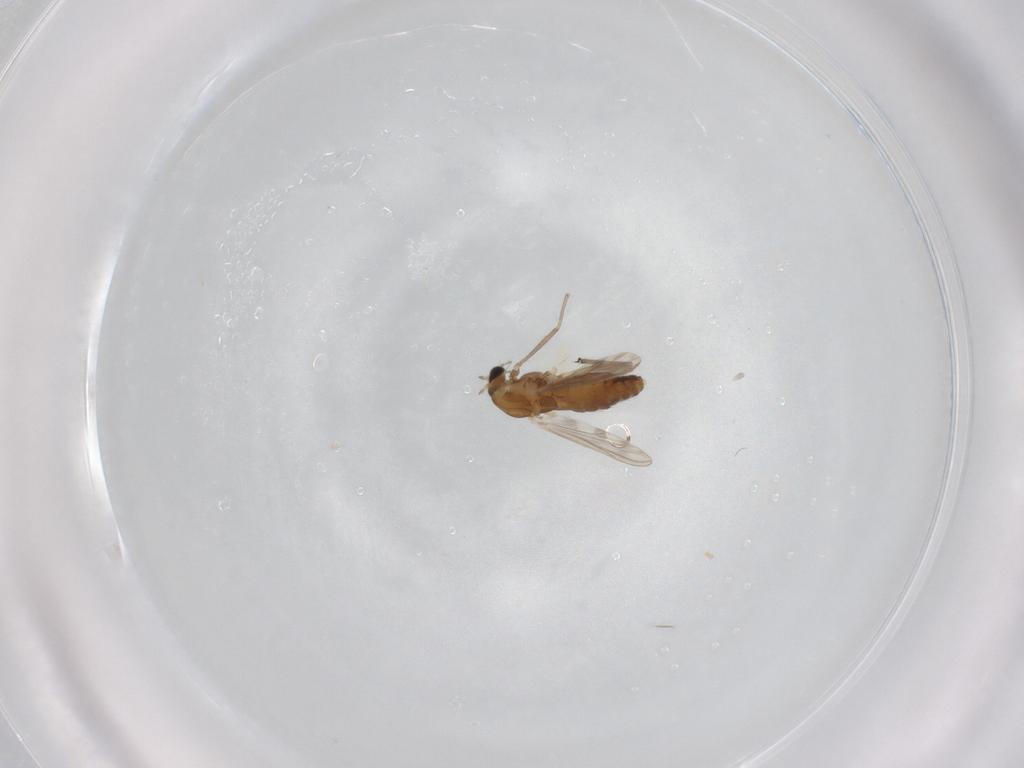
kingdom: Animalia
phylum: Arthropoda
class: Insecta
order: Diptera
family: Chironomidae
